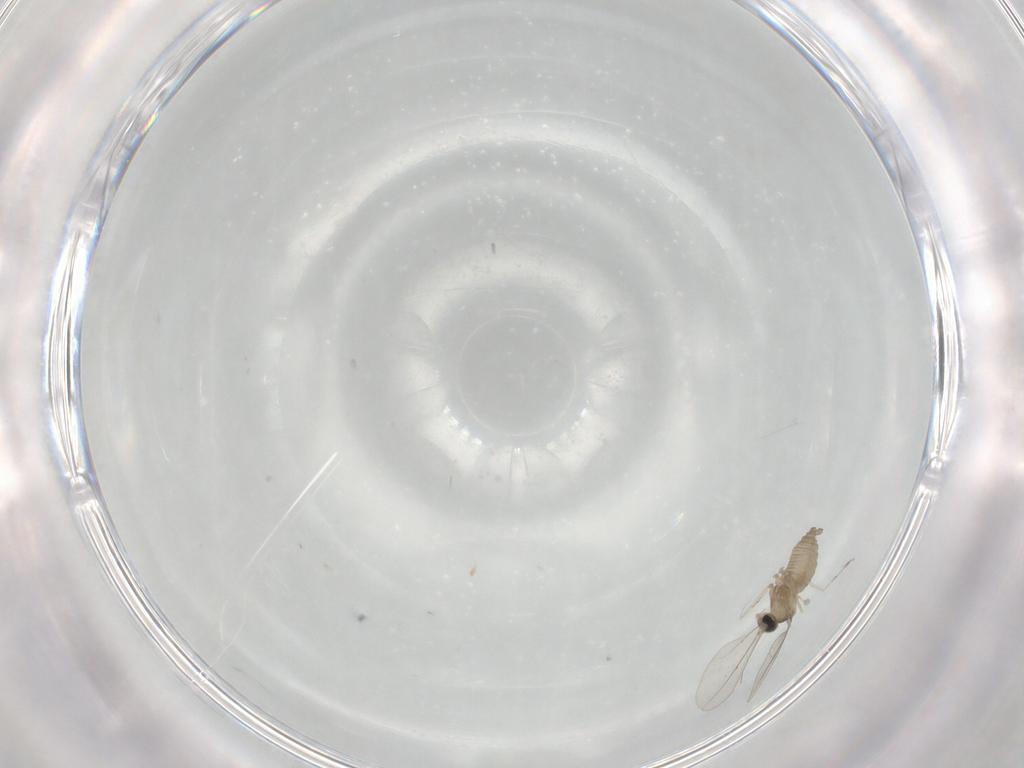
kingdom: Animalia
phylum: Arthropoda
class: Insecta
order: Diptera
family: Cecidomyiidae
